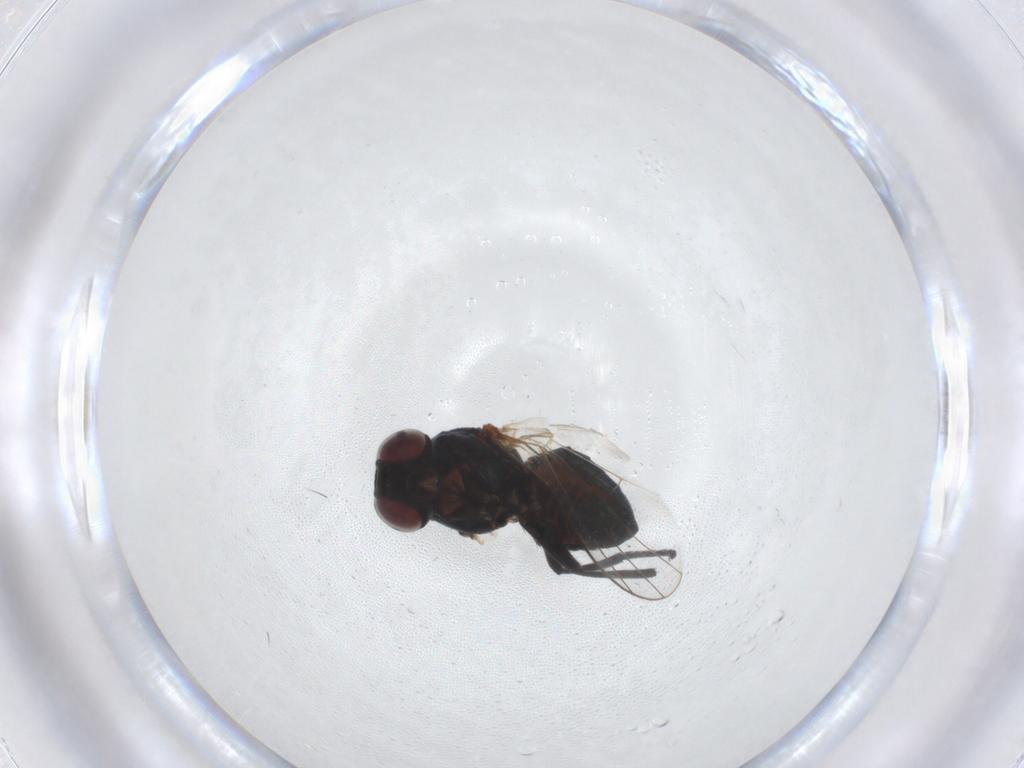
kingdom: Animalia
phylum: Arthropoda
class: Insecta
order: Diptera
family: Agromyzidae
